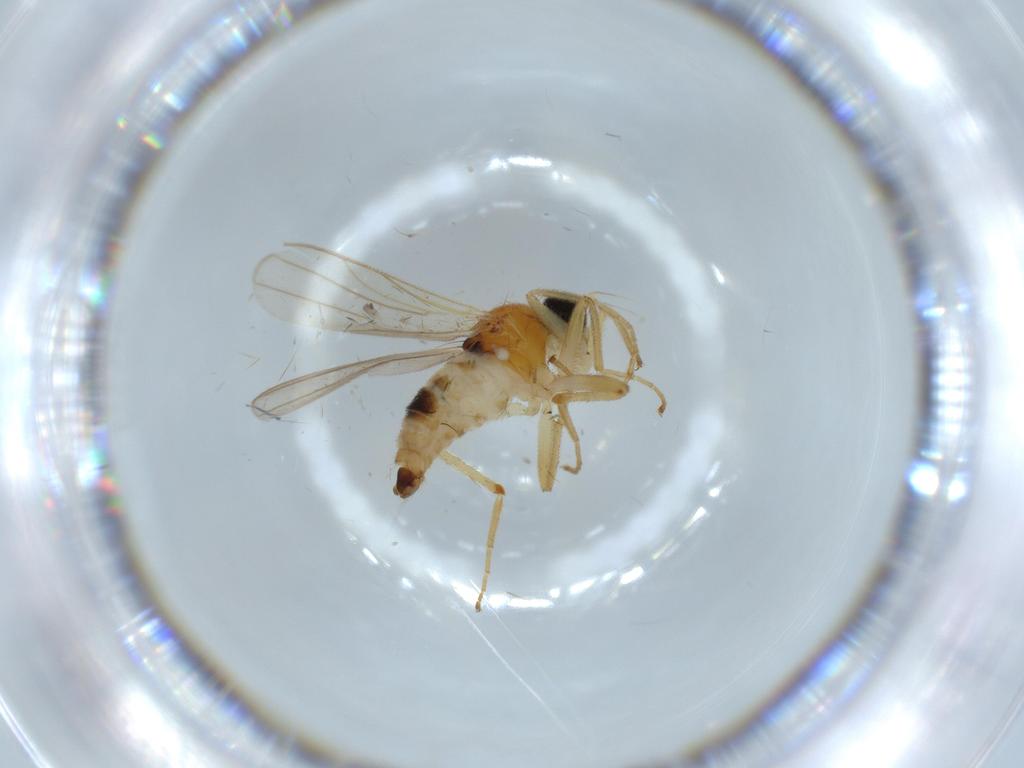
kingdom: Animalia
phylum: Arthropoda
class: Insecta
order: Diptera
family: Hybotidae
